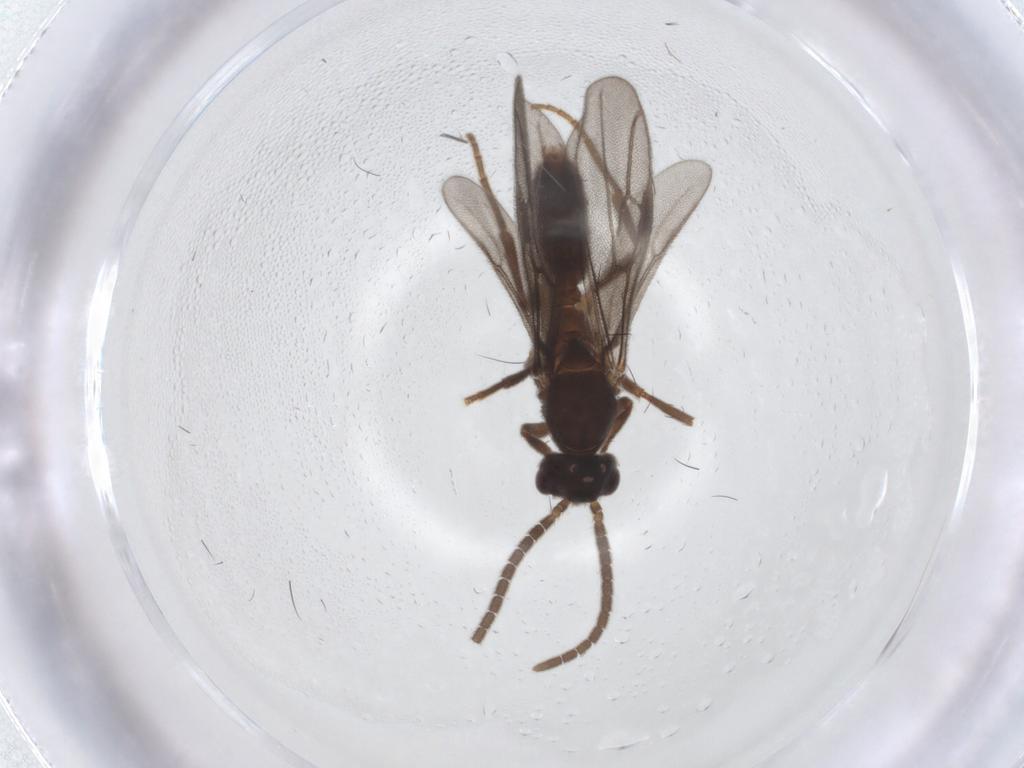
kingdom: Animalia
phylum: Arthropoda
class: Insecta
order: Hymenoptera
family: Formicidae
